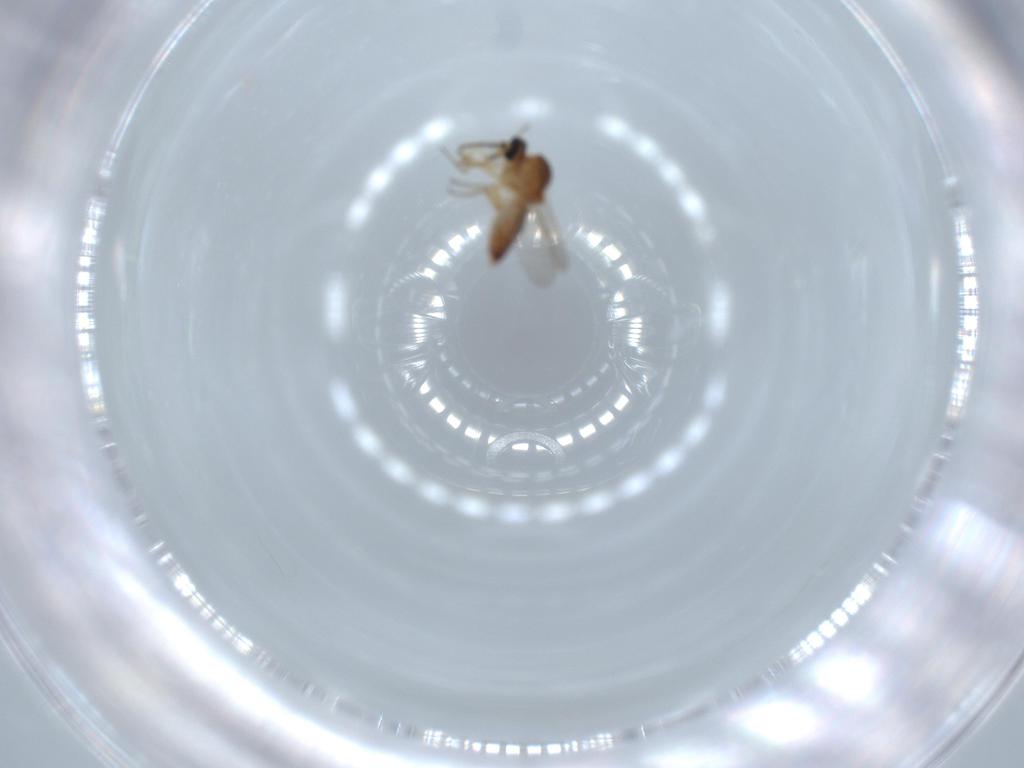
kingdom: Animalia
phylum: Arthropoda
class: Insecta
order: Diptera
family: Ceratopogonidae
